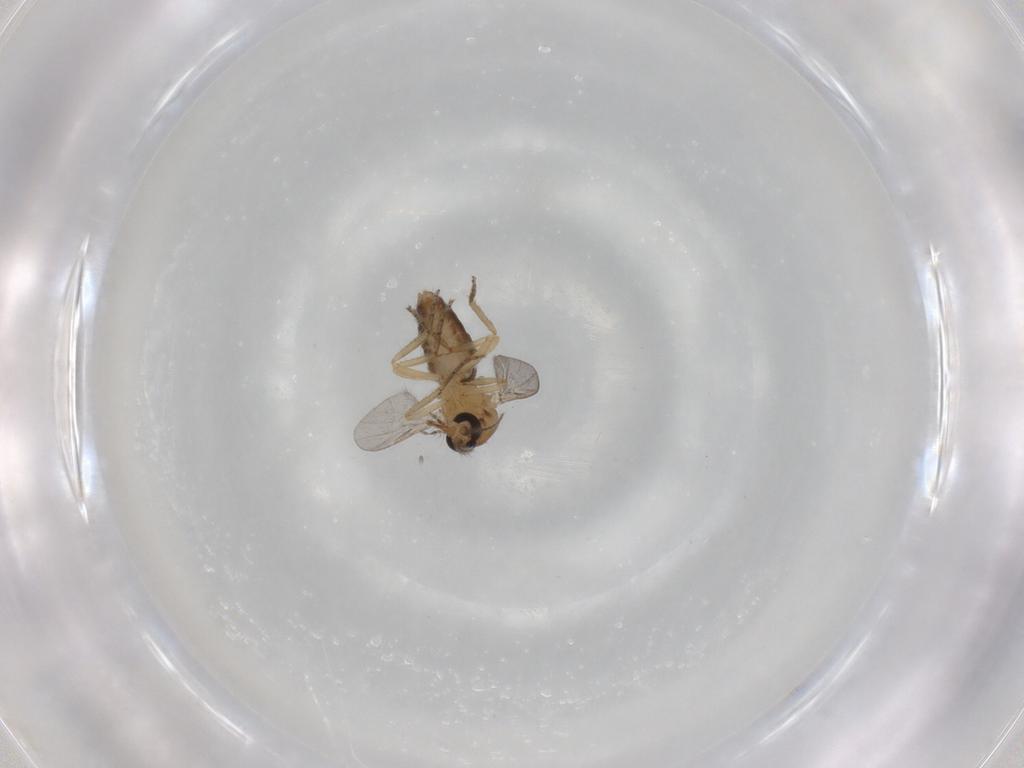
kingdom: Animalia
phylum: Arthropoda
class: Insecta
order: Diptera
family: Ceratopogonidae
